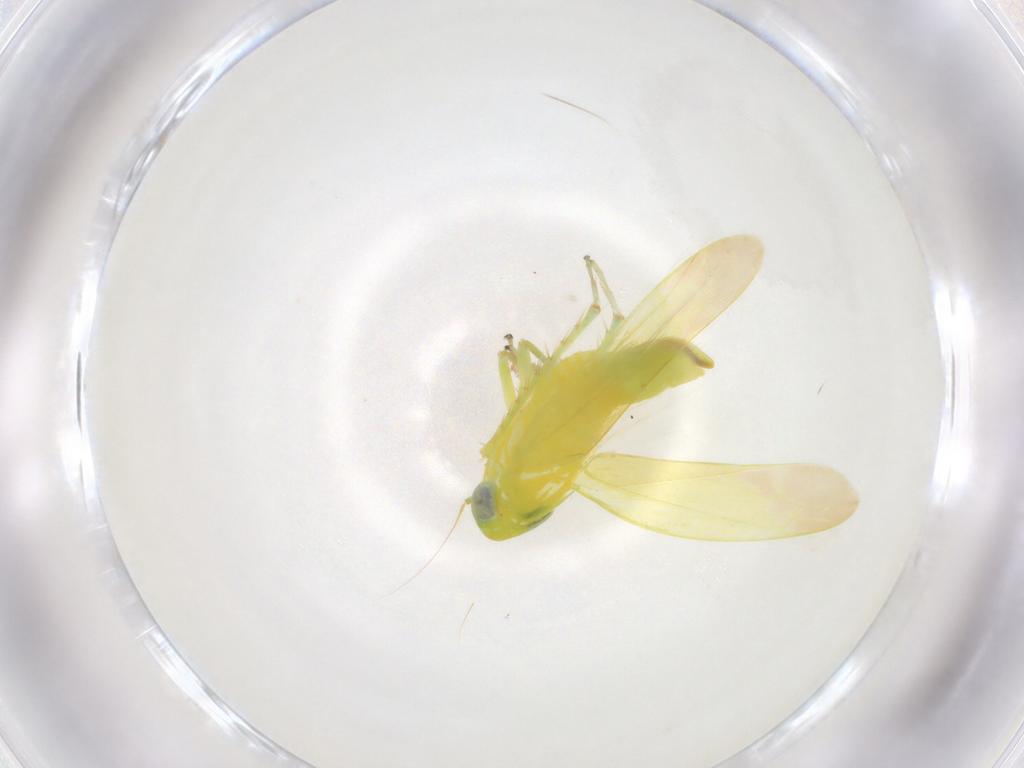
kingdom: Animalia
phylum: Arthropoda
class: Insecta
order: Hemiptera
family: Cicadellidae
